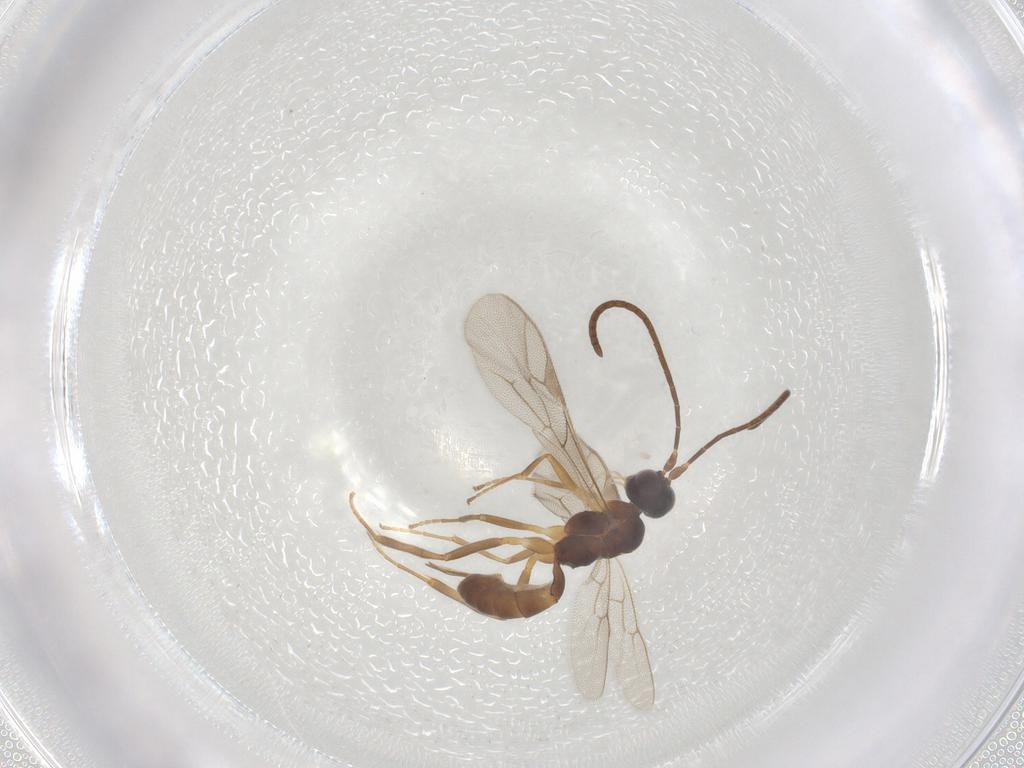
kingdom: Animalia
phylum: Arthropoda
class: Insecta
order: Hymenoptera
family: Ichneumonidae
